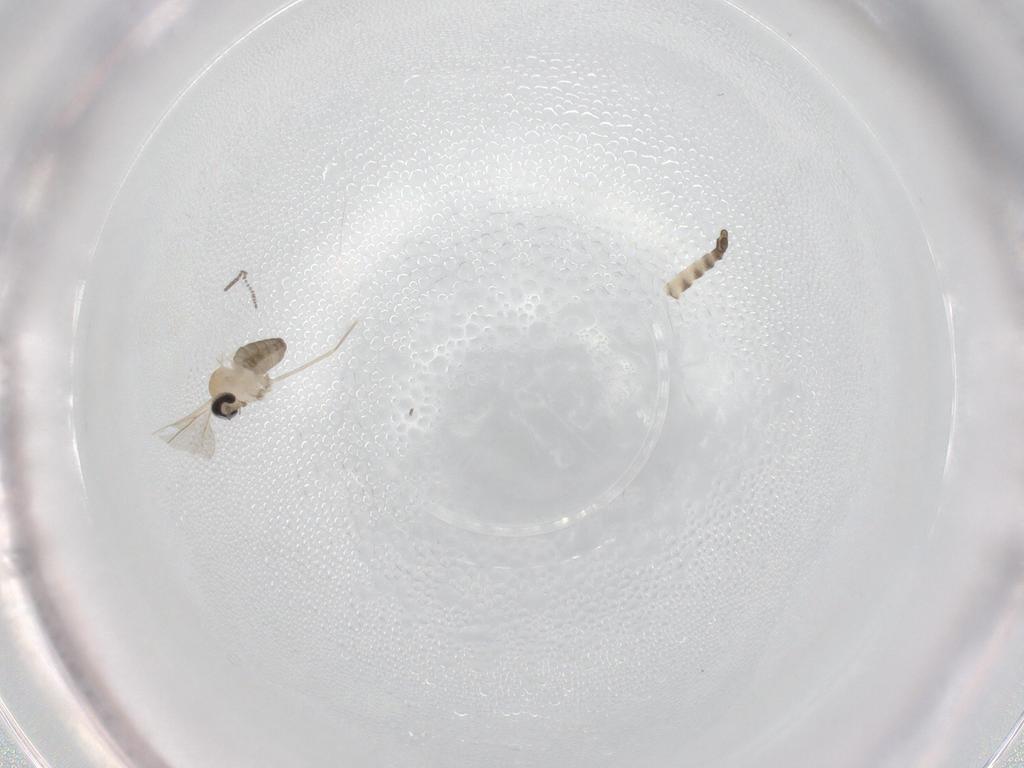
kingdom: Animalia
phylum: Arthropoda
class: Insecta
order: Diptera
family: Cecidomyiidae
